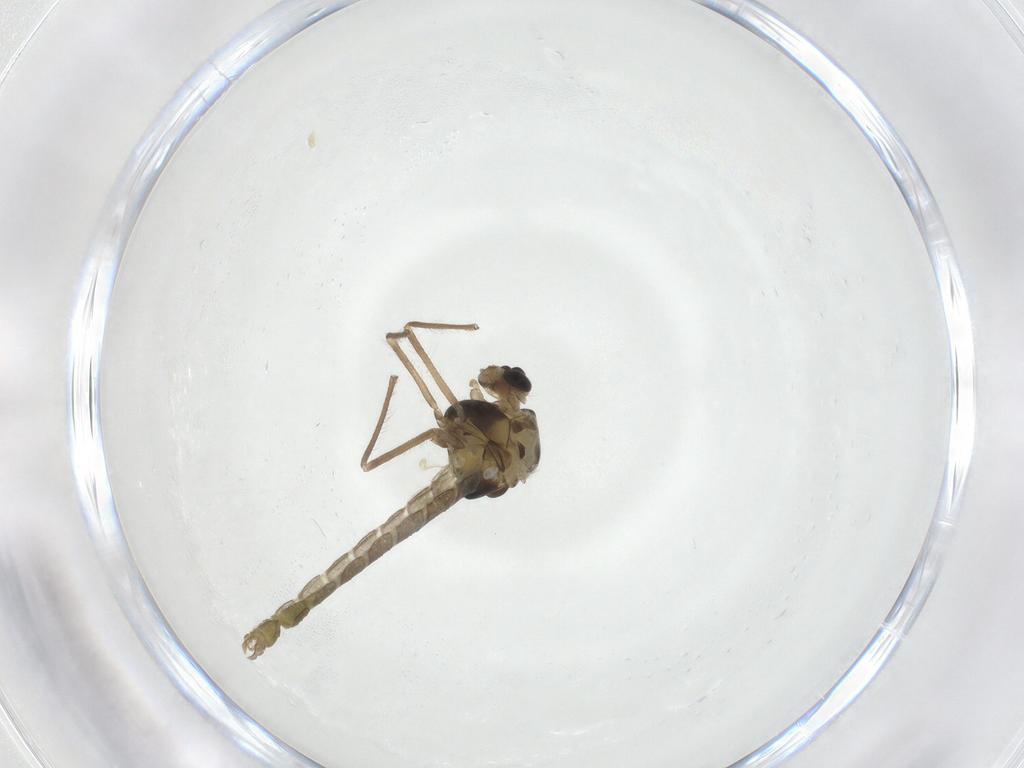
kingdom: Animalia
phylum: Arthropoda
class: Insecta
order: Diptera
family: Chironomidae
